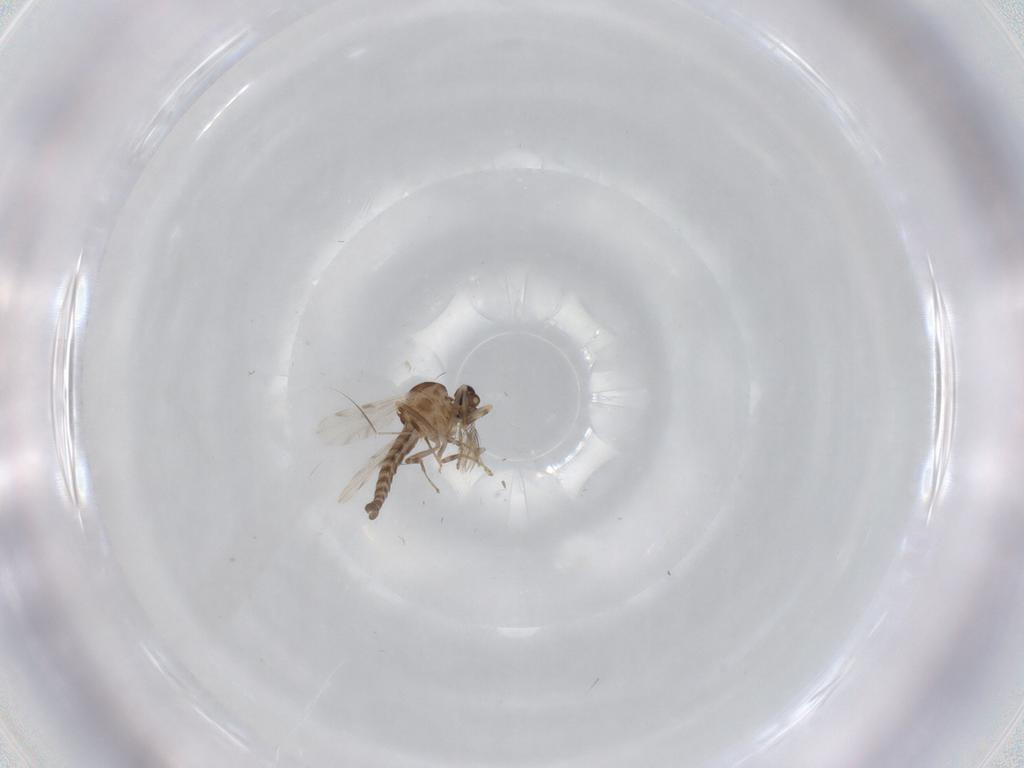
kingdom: Animalia
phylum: Arthropoda
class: Insecta
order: Diptera
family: Ceratopogonidae
